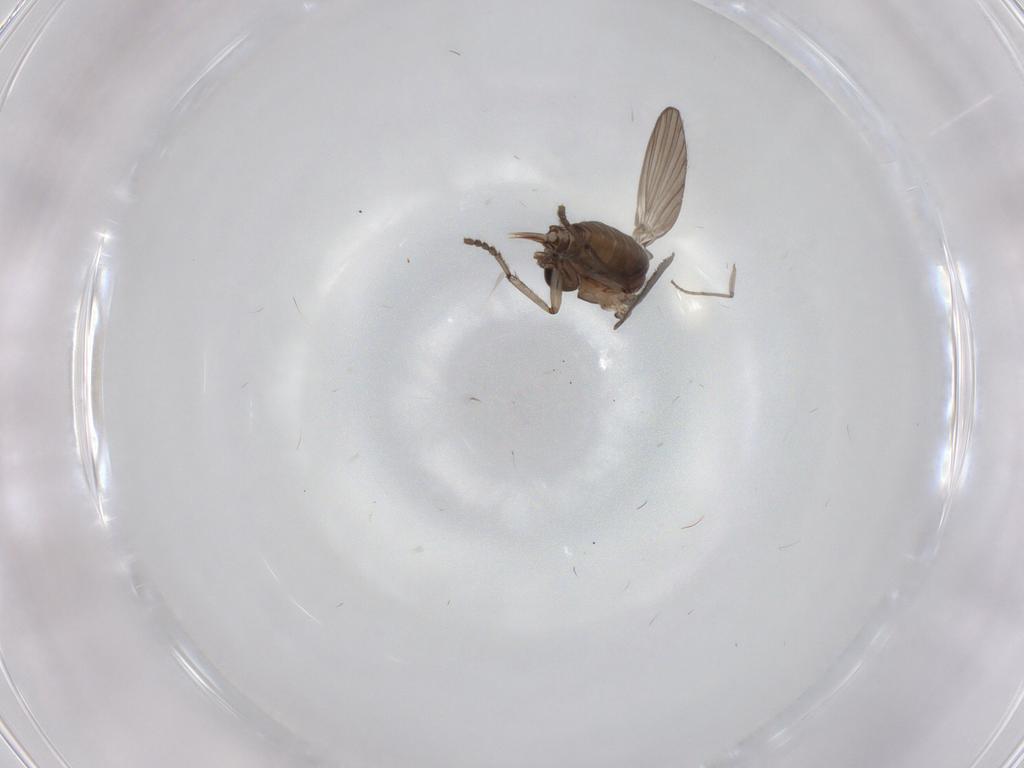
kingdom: Animalia
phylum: Arthropoda
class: Insecta
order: Diptera
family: Psychodidae
